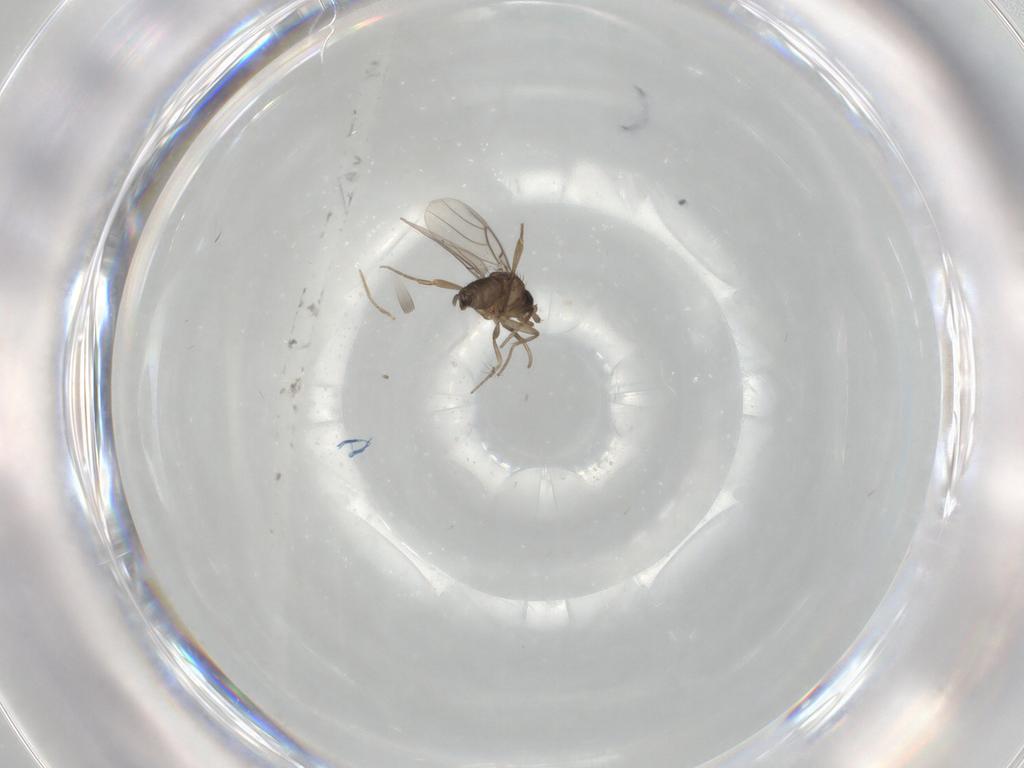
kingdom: Animalia
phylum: Arthropoda
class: Insecta
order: Diptera
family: Phoridae
